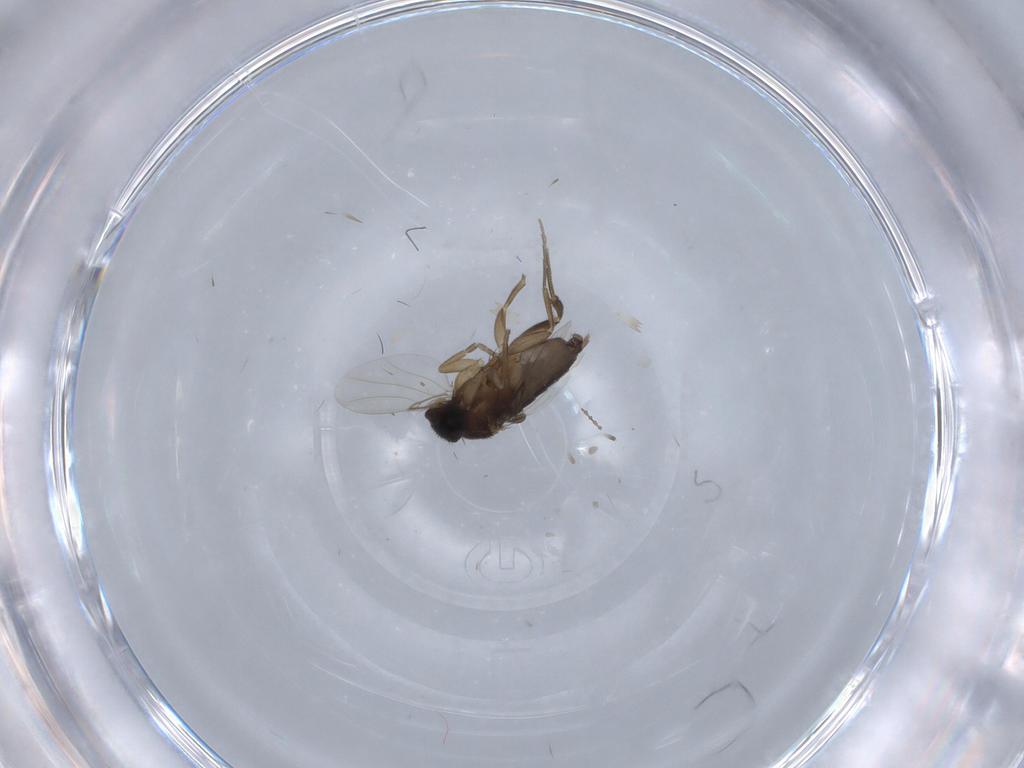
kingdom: Animalia
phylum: Arthropoda
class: Insecta
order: Diptera
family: Phoridae
